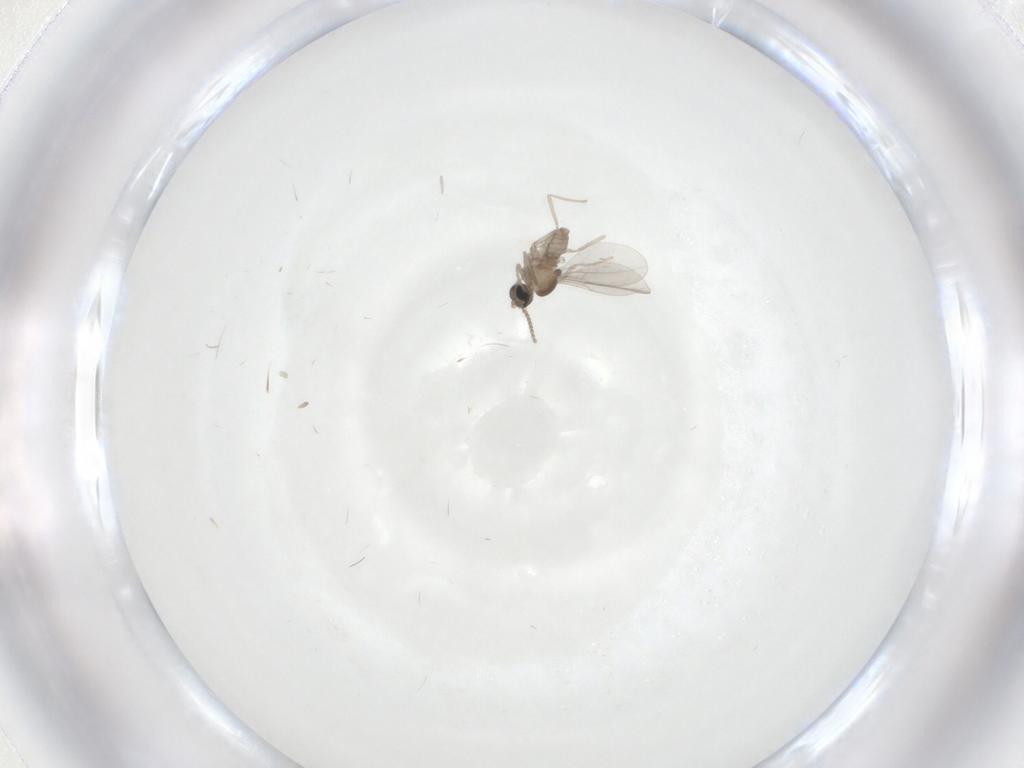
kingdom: Animalia
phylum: Arthropoda
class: Insecta
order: Diptera
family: Cecidomyiidae
